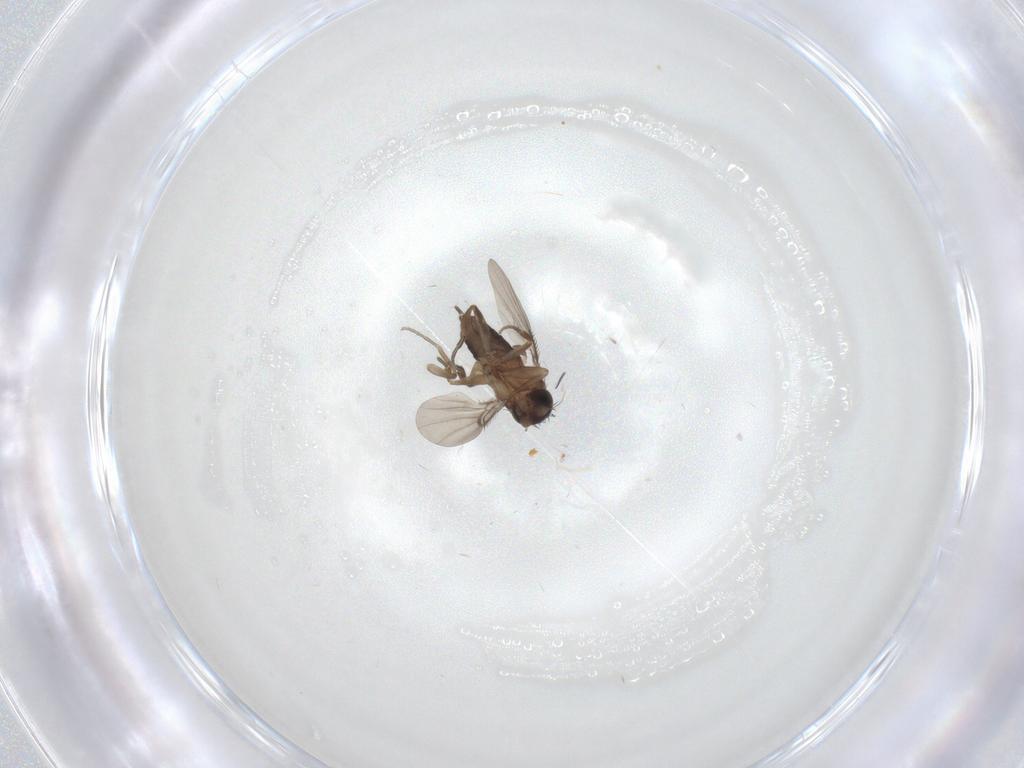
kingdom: Animalia
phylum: Arthropoda
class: Insecta
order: Diptera
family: Phoridae
